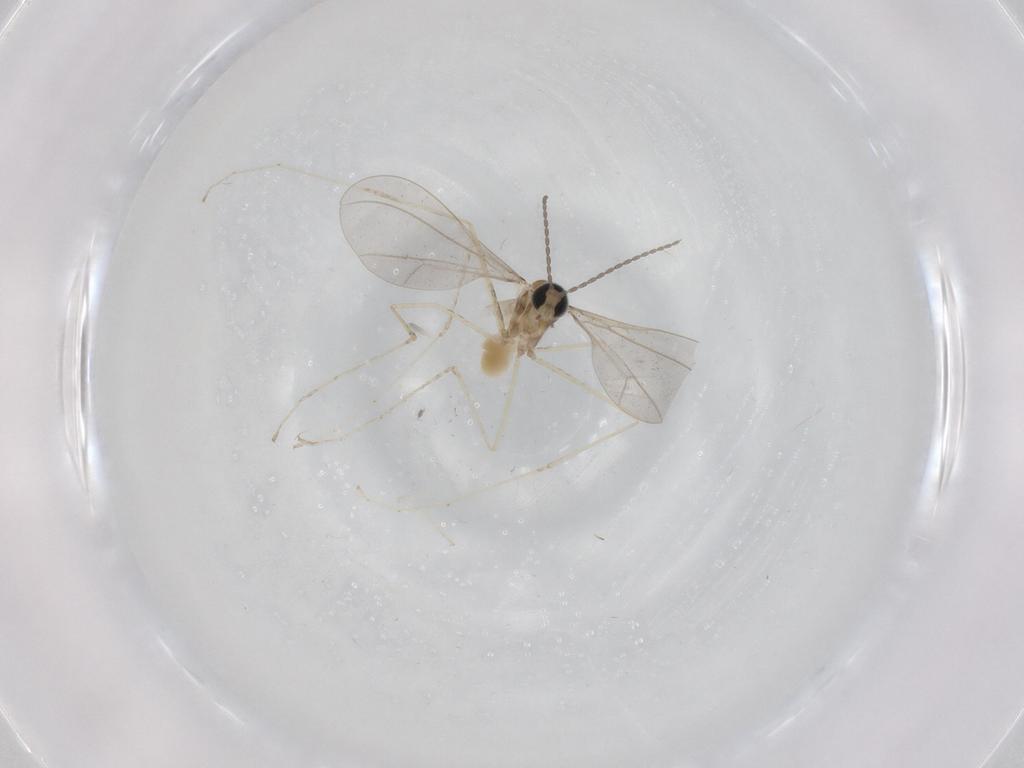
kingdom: Animalia
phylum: Arthropoda
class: Insecta
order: Diptera
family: Cecidomyiidae
